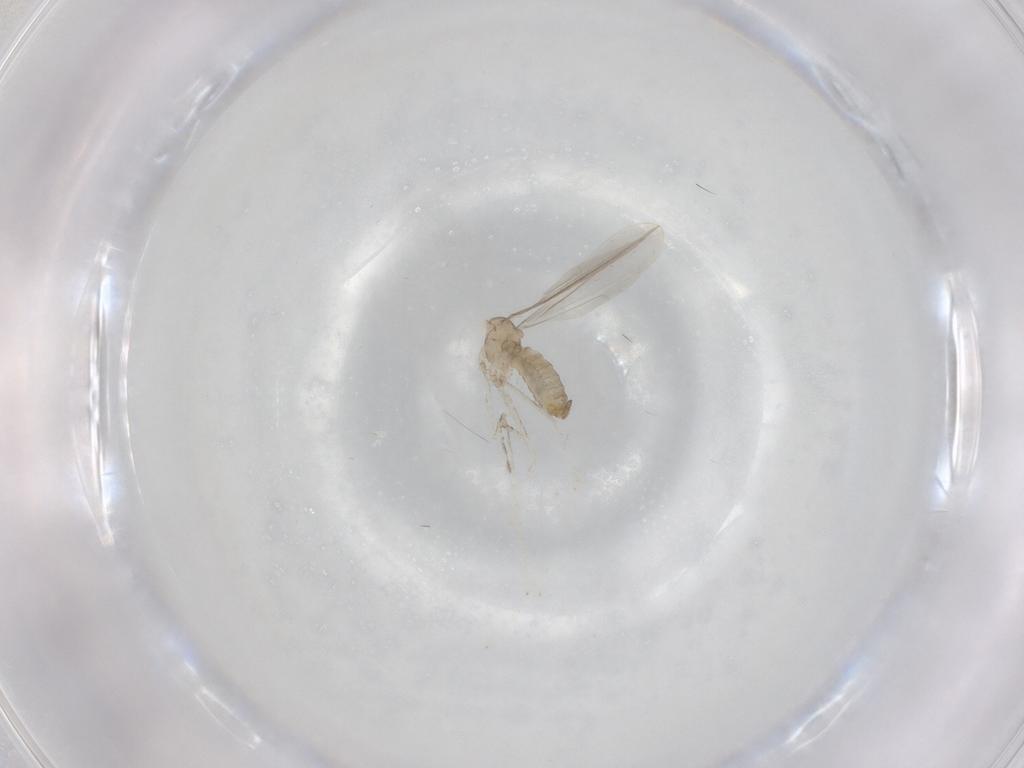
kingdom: Animalia
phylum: Arthropoda
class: Insecta
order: Diptera
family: Cecidomyiidae
